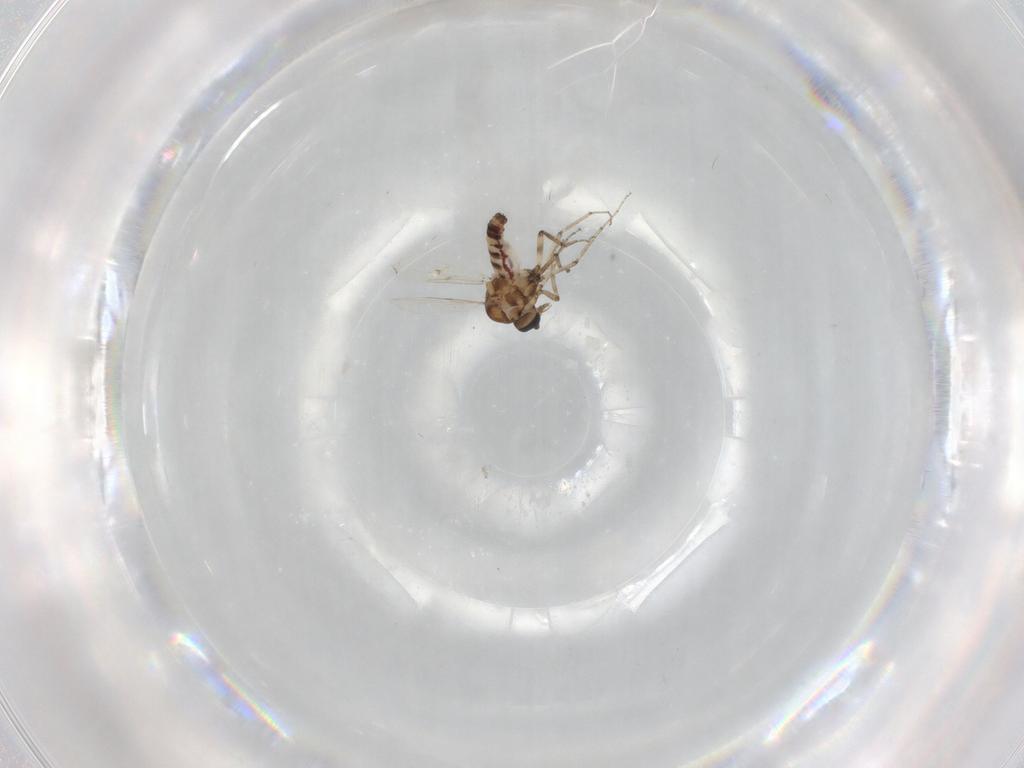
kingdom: Animalia
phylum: Arthropoda
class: Insecta
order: Diptera
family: Ceratopogonidae
